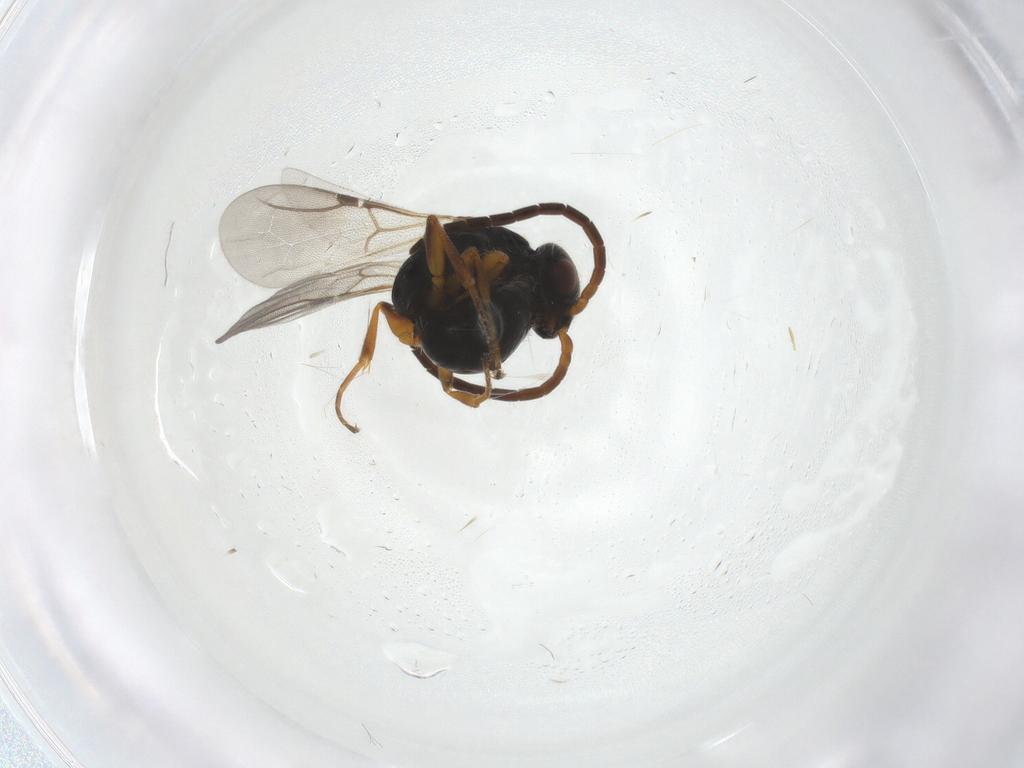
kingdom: Animalia
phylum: Arthropoda
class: Insecta
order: Hymenoptera
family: Bethylidae
